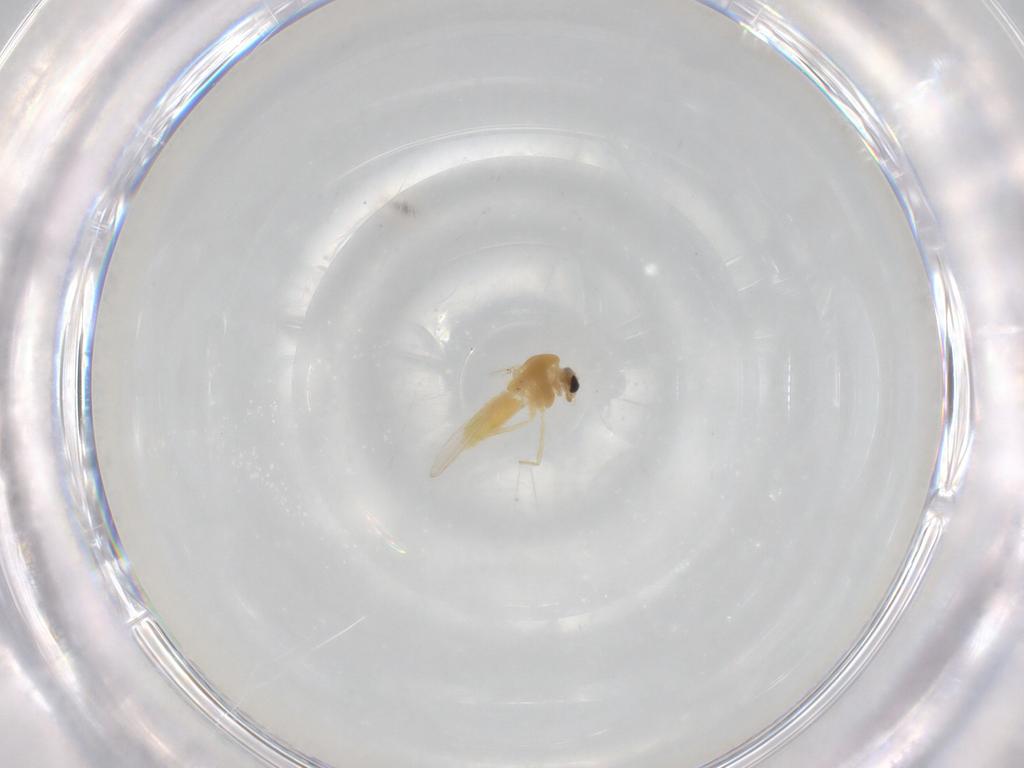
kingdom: Animalia
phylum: Arthropoda
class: Insecta
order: Diptera
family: Chironomidae
